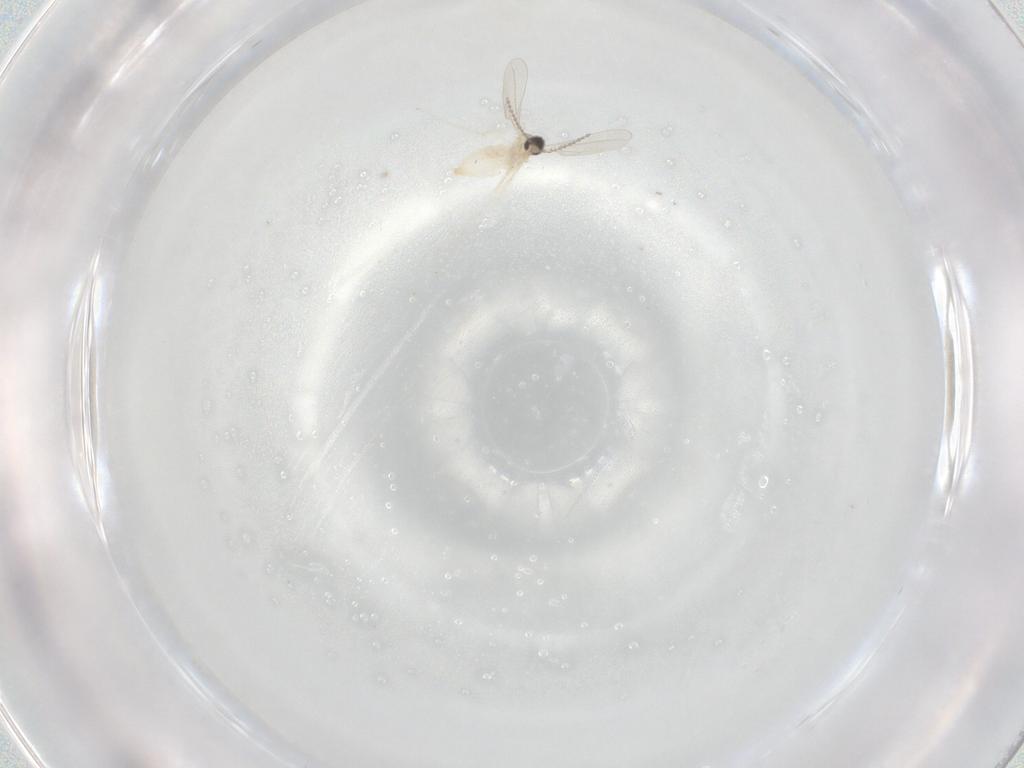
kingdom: Animalia
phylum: Arthropoda
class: Insecta
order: Diptera
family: Cecidomyiidae
